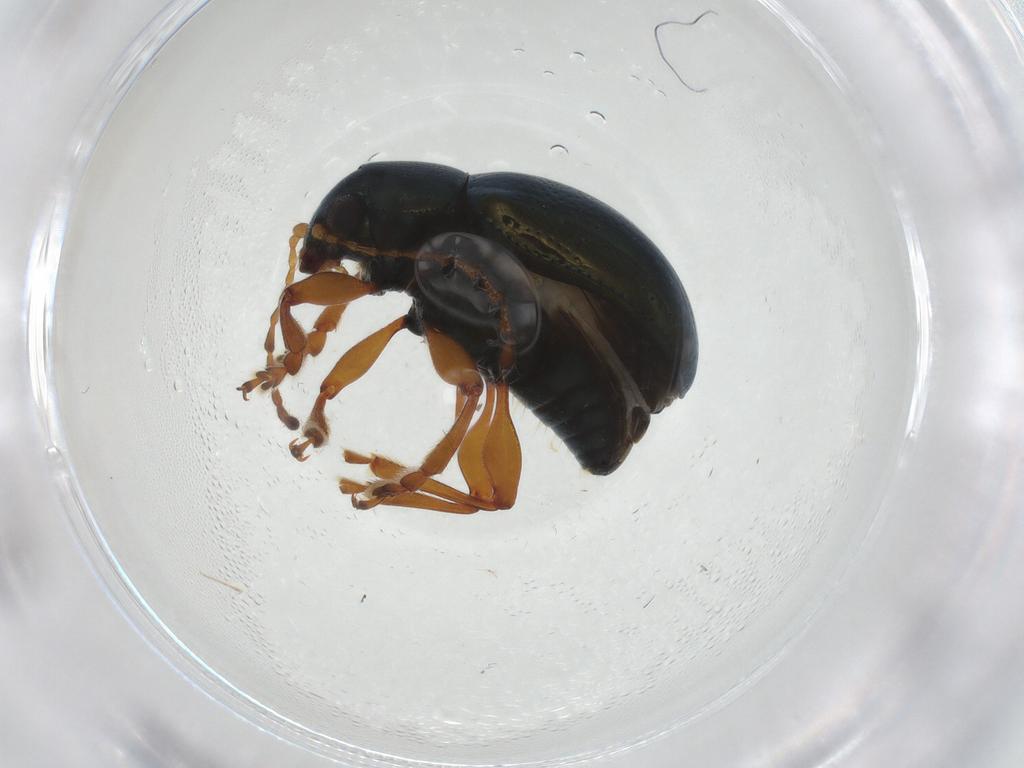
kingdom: Animalia
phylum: Arthropoda
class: Insecta
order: Coleoptera
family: Chrysomelidae
